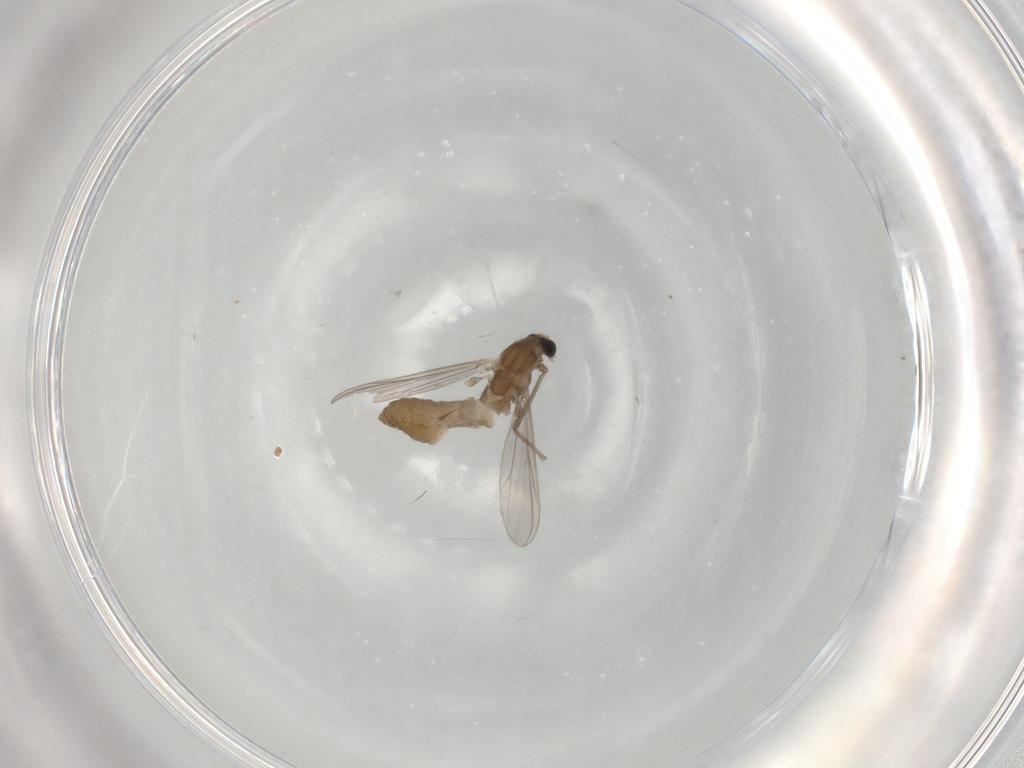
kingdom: Animalia
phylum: Arthropoda
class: Insecta
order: Diptera
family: Chironomidae
